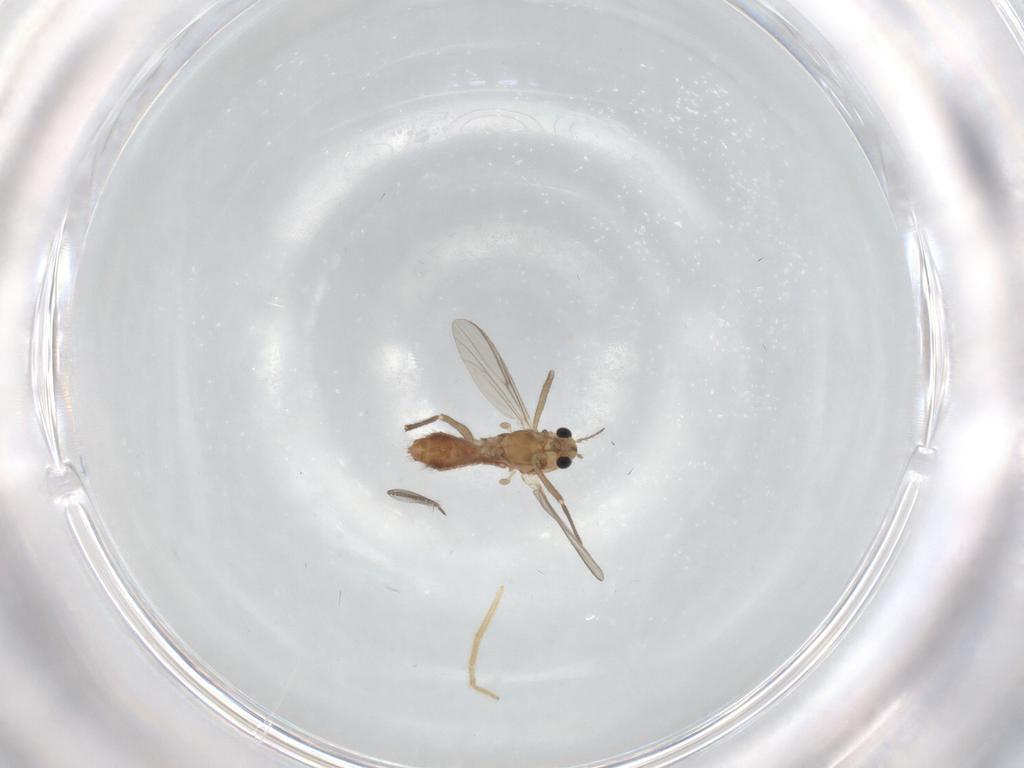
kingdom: Animalia
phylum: Arthropoda
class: Insecta
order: Diptera
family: Chironomidae
